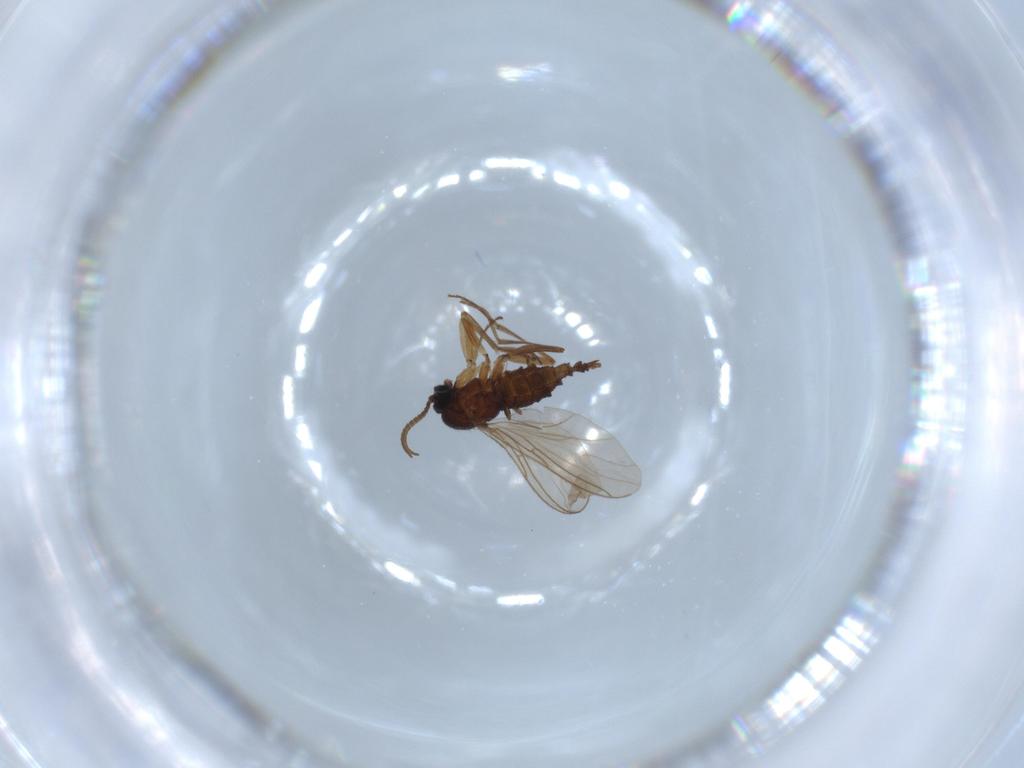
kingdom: Animalia
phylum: Arthropoda
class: Insecta
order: Diptera
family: Sciaridae
